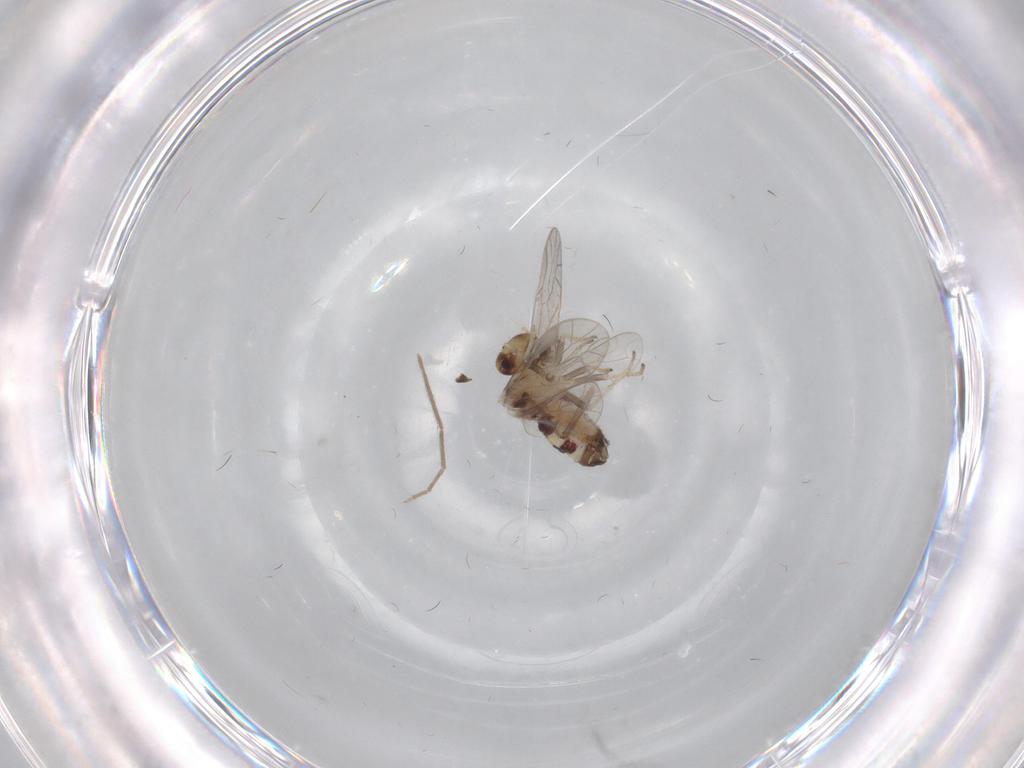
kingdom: Animalia
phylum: Arthropoda
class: Insecta
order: Psocodea
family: Ectopsocidae
